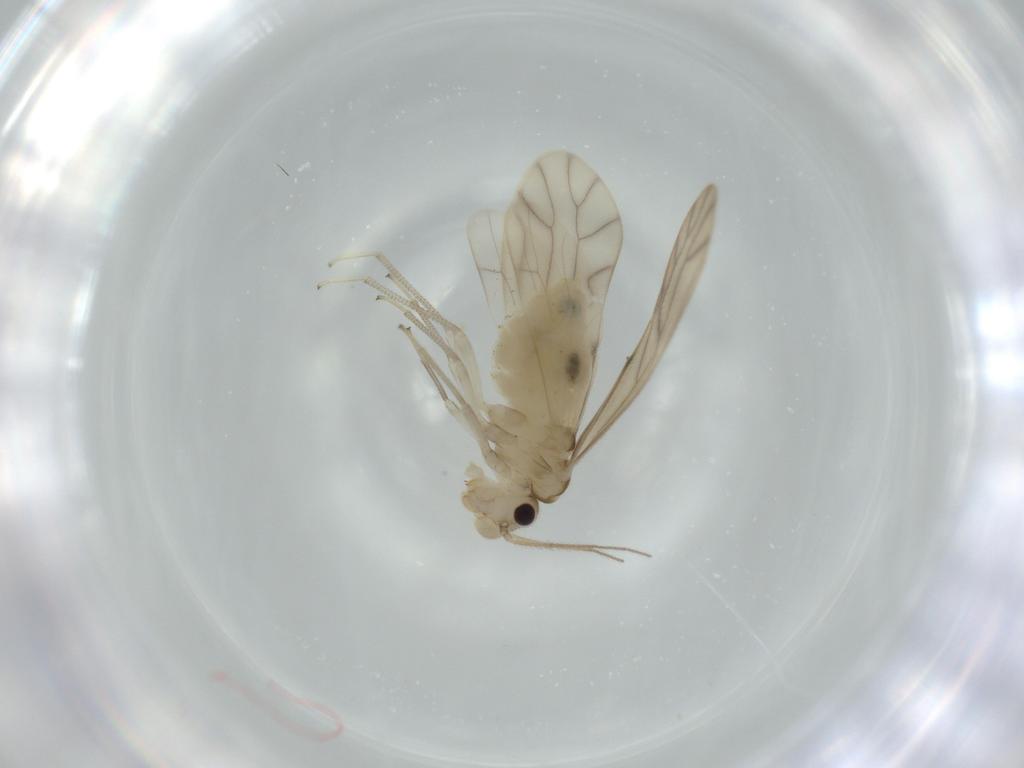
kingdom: Animalia
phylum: Arthropoda
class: Insecta
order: Psocodea
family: Caeciliusidae
